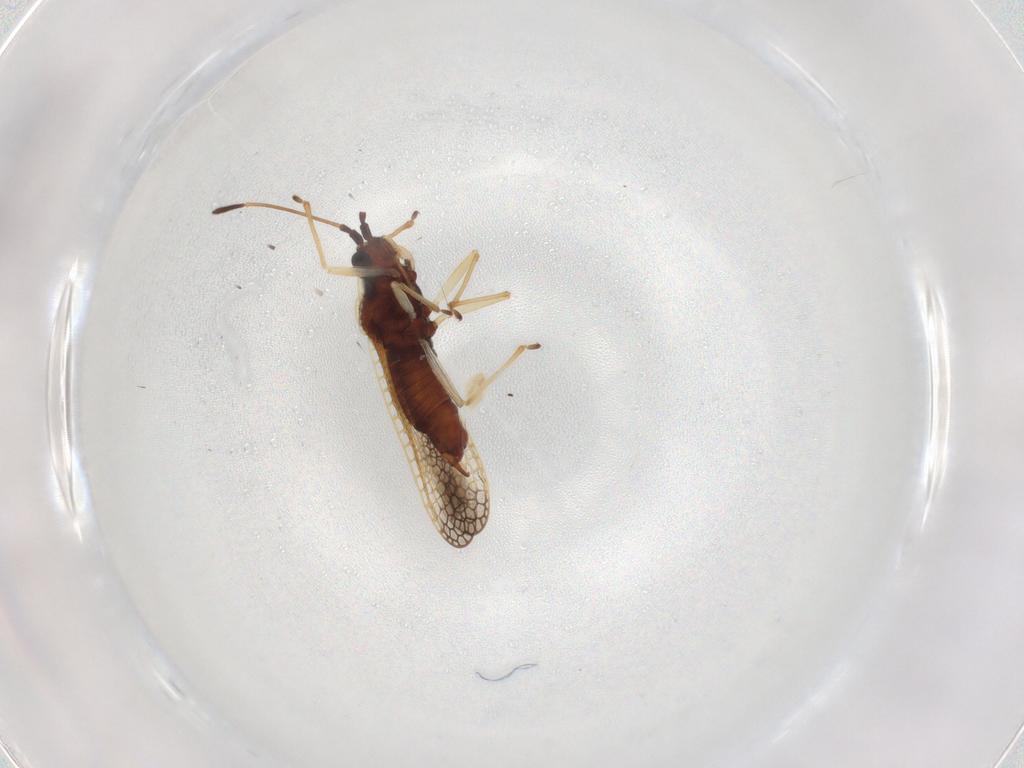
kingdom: Animalia
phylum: Arthropoda
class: Insecta
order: Hemiptera
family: Tingidae
